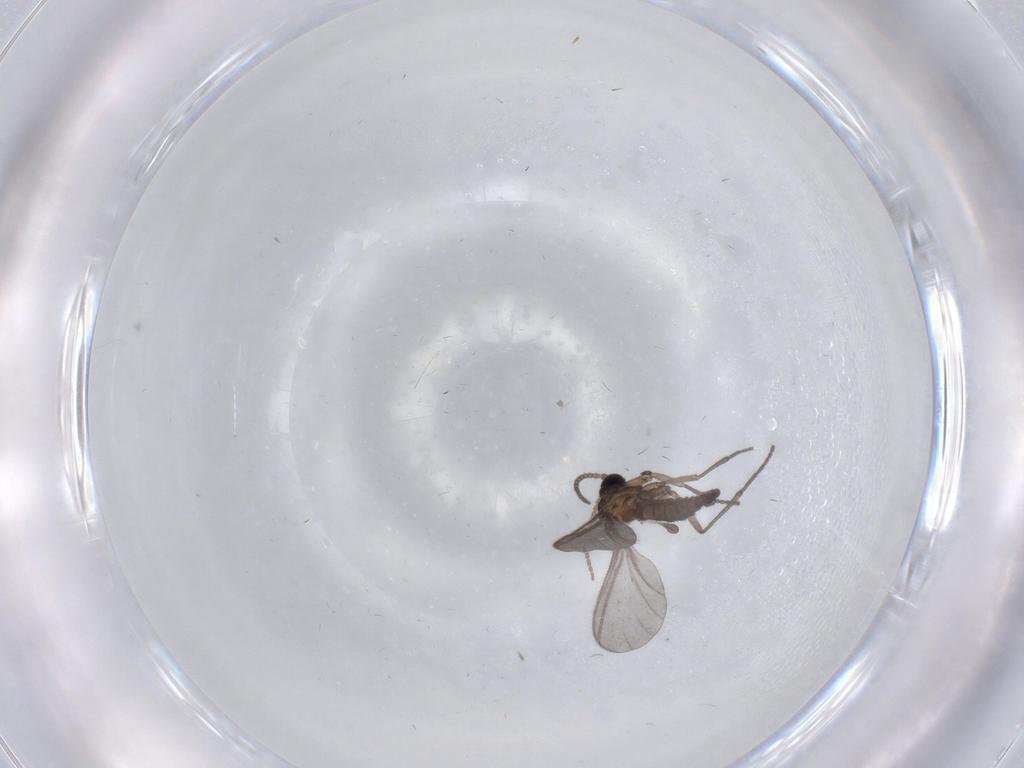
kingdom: Animalia
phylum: Arthropoda
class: Insecta
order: Diptera
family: Sciaridae
